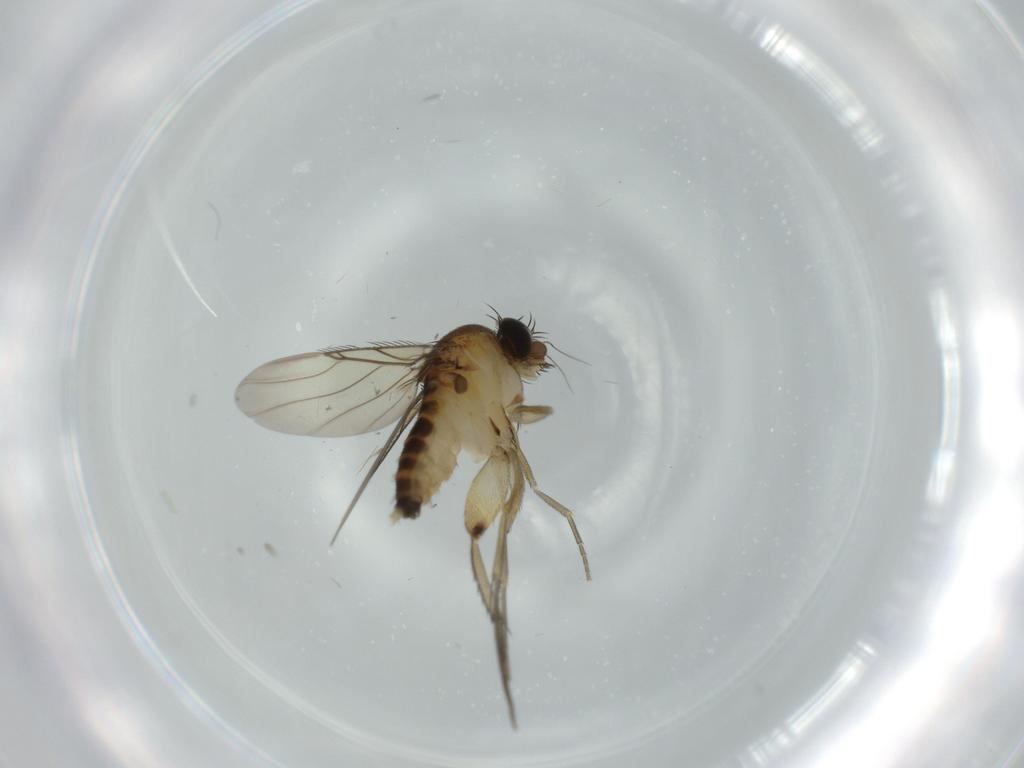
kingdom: Animalia
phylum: Arthropoda
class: Insecta
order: Diptera
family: Phoridae
